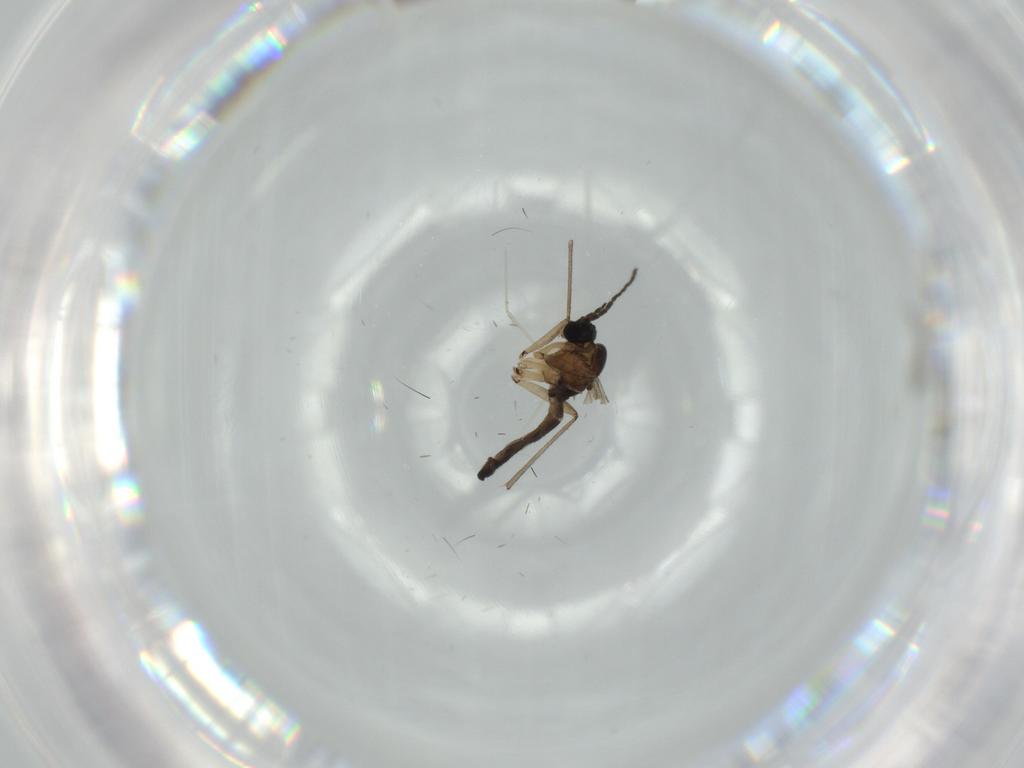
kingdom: Animalia
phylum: Arthropoda
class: Insecta
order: Diptera
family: Sciaridae
